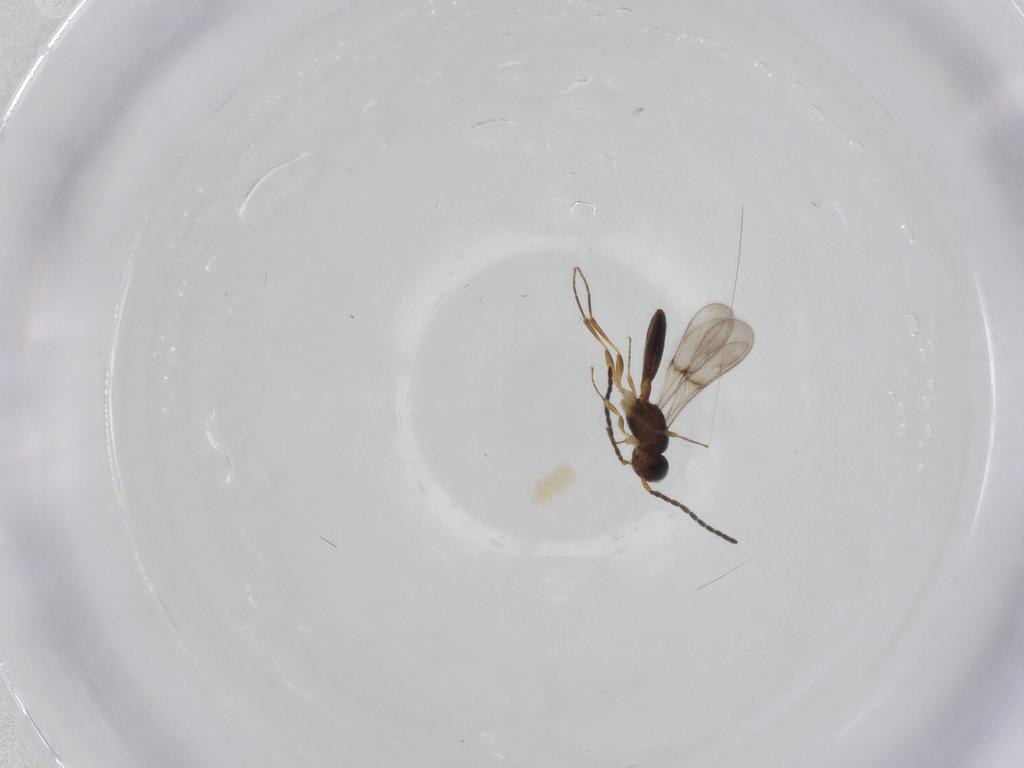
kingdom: Animalia
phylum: Arthropoda
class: Insecta
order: Hymenoptera
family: Scelionidae
